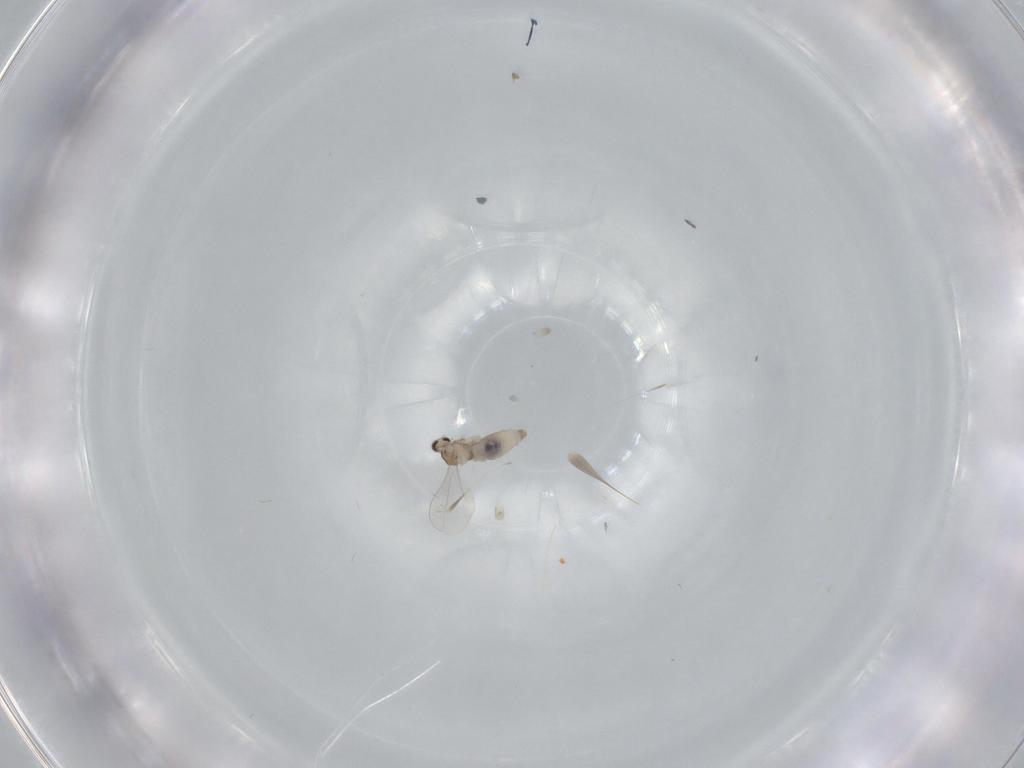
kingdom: Animalia
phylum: Arthropoda
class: Insecta
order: Diptera
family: Cecidomyiidae
